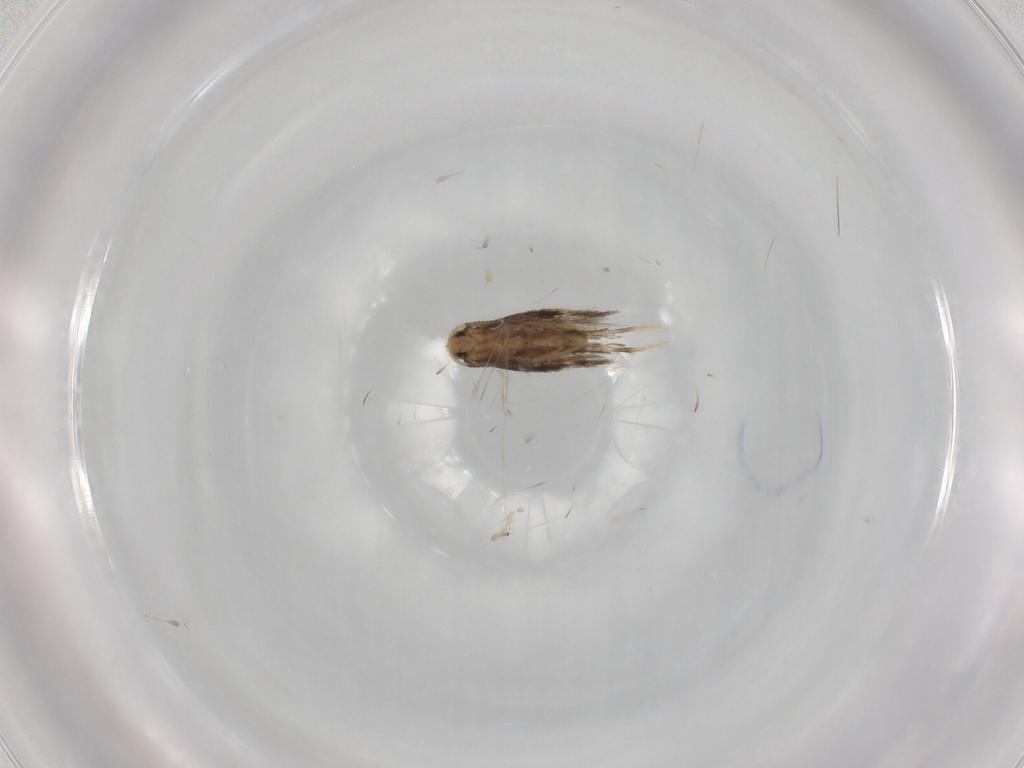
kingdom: Animalia
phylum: Arthropoda
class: Insecta
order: Lepidoptera
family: Nepticulidae
